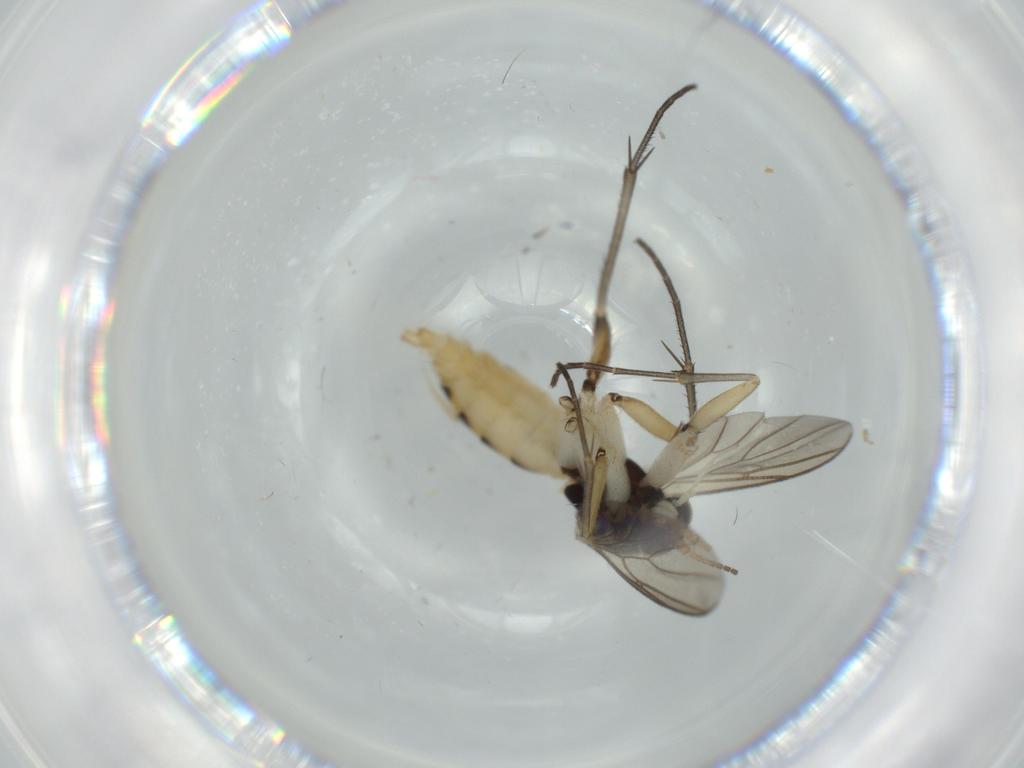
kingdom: Animalia
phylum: Arthropoda
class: Insecta
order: Diptera
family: Mycetophilidae
